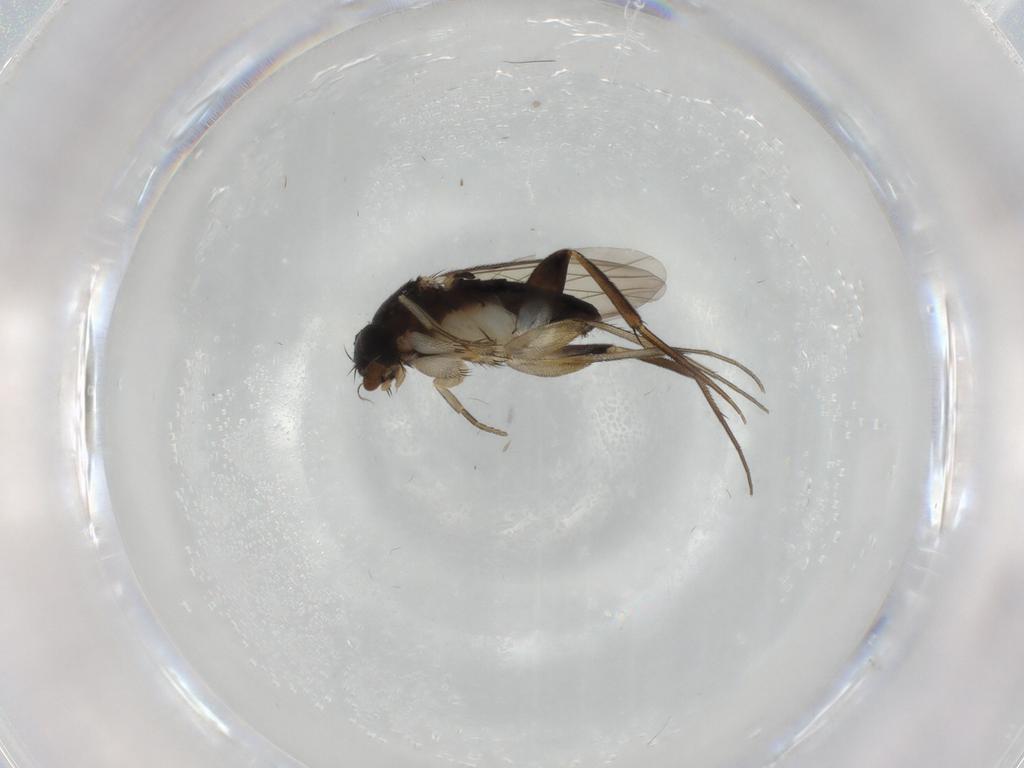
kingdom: Animalia
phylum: Arthropoda
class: Insecta
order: Diptera
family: Phoridae
